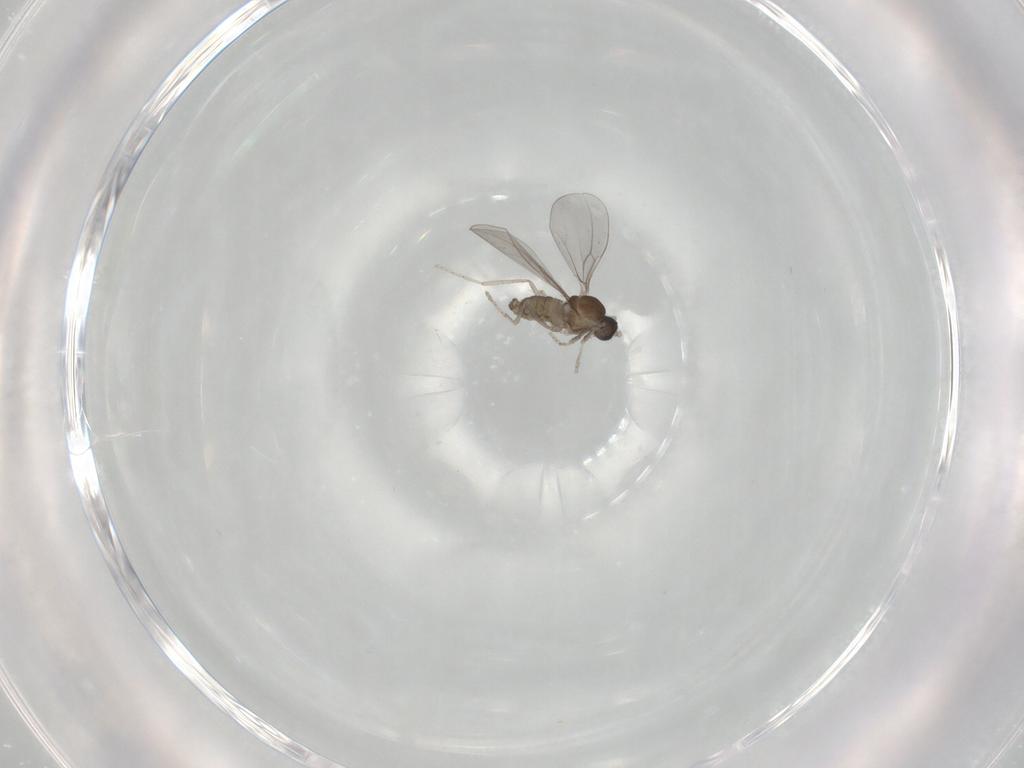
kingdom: Animalia
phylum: Arthropoda
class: Insecta
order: Diptera
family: Cecidomyiidae
